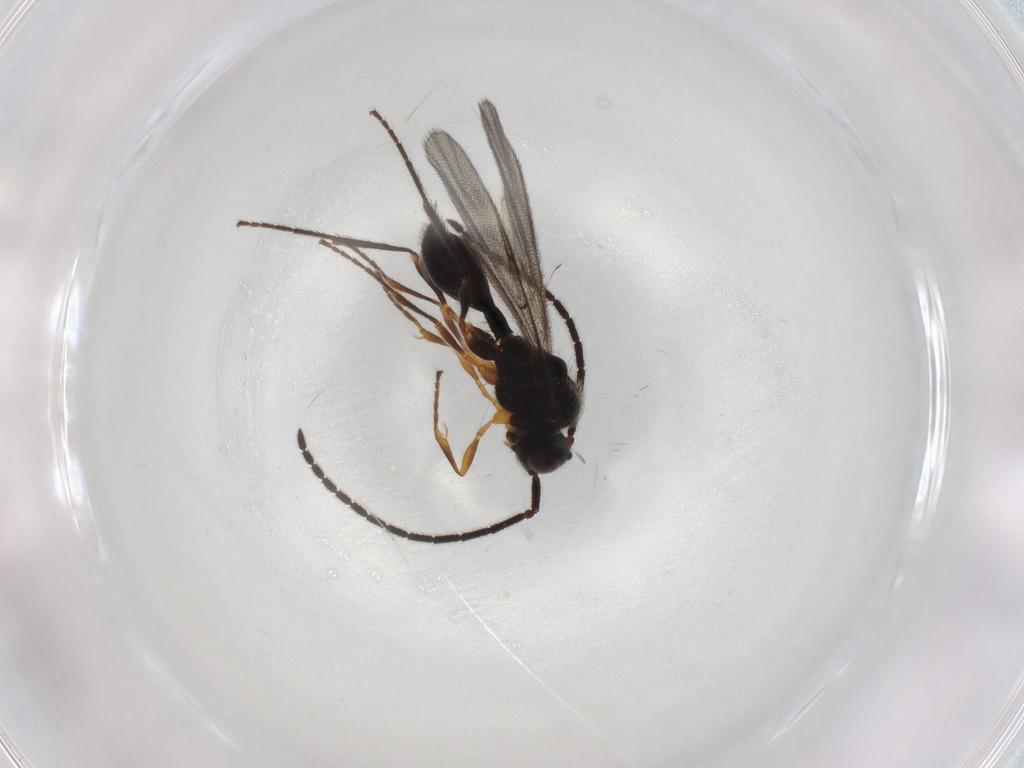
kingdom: Animalia
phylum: Arthropoda
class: Insecta
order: Hymenoptera
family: Diapriidae
